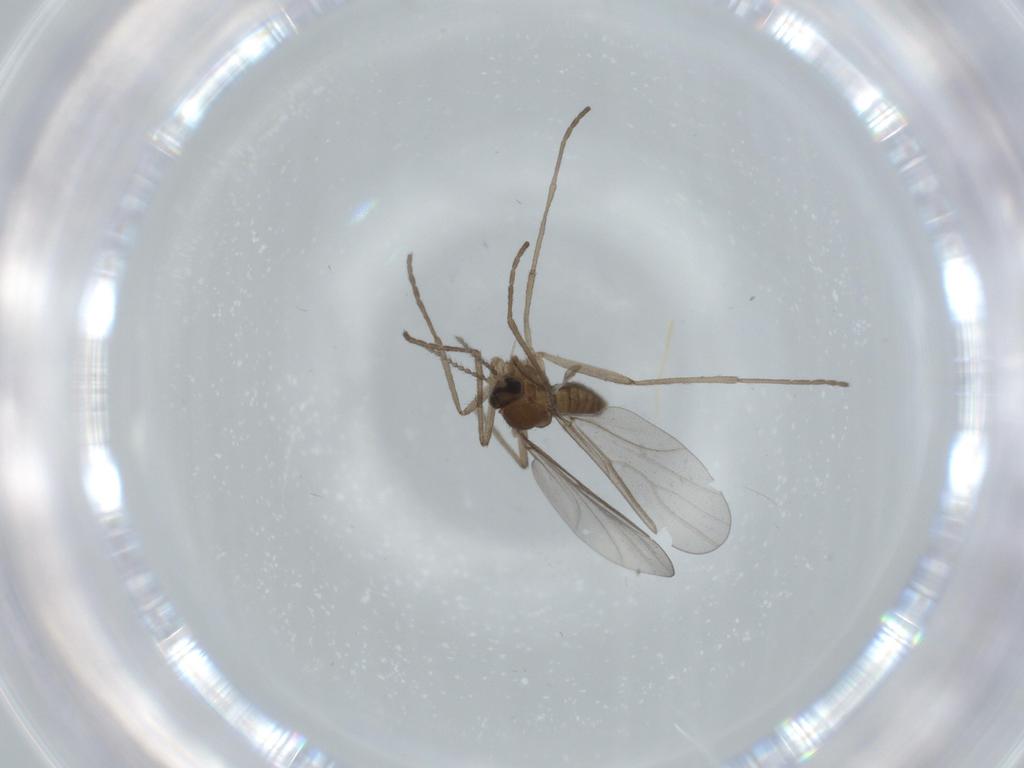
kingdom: Animalia
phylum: Arthropoda
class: Insecta
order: Diptera
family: Cecidomyiidae
